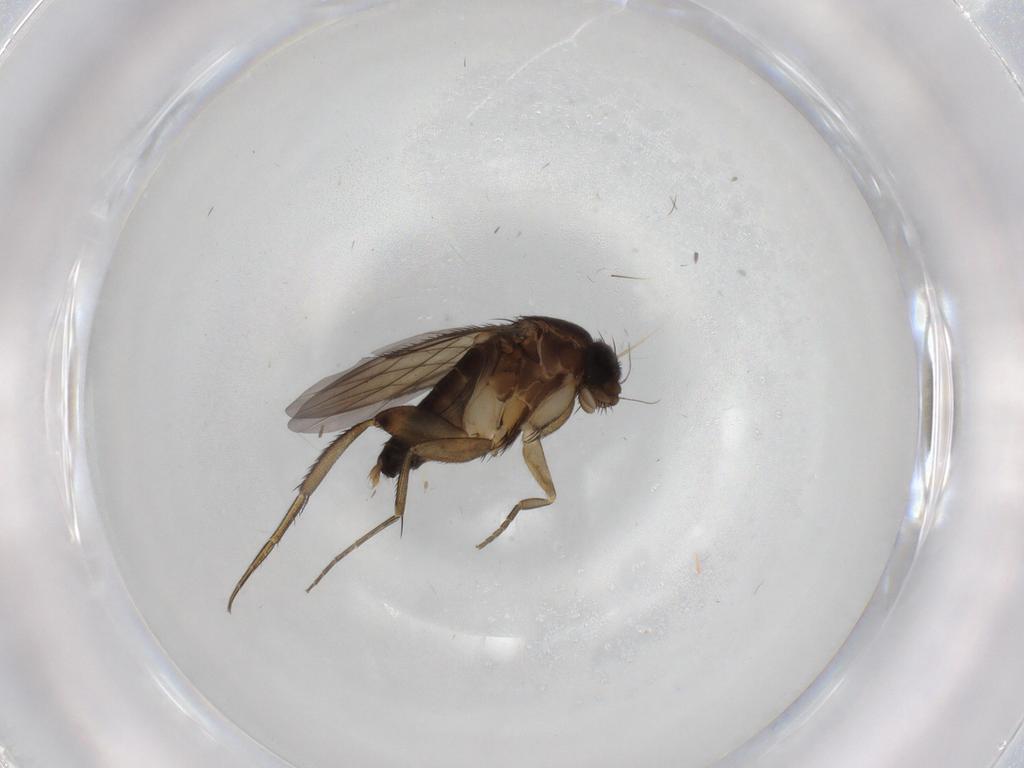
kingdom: Animalia
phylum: Arthropoda
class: Insecta
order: Diptera
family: Phoridae
